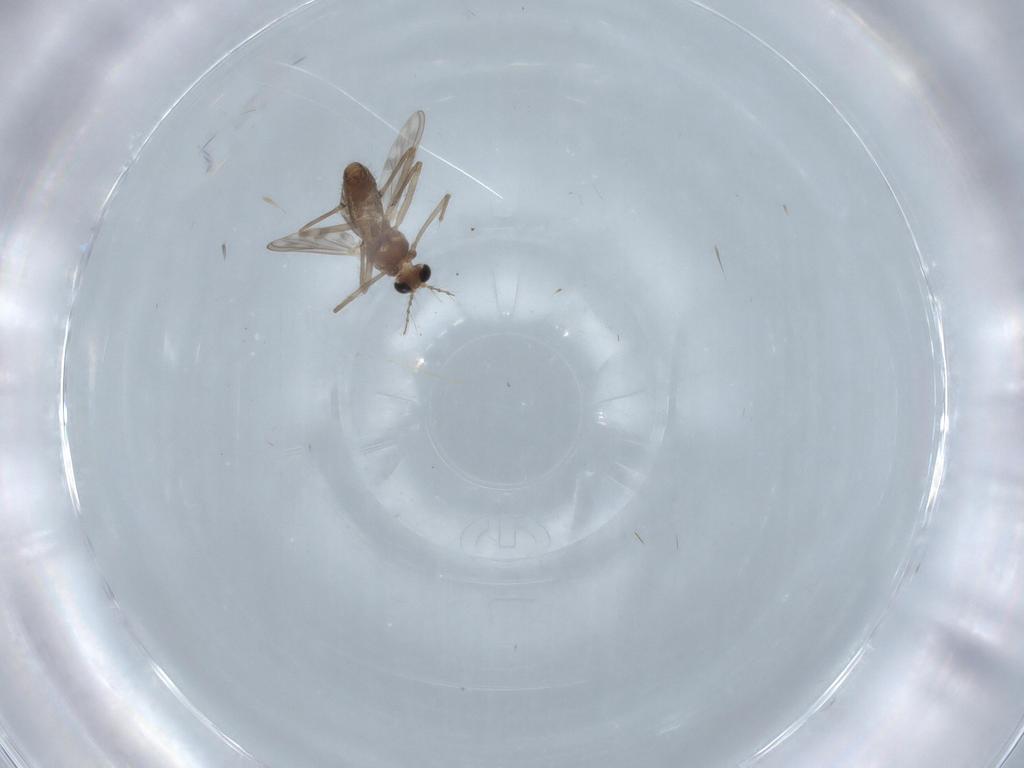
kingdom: Animalia
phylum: Arthropoda
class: Insecta
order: Diptera
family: Chironomidae
